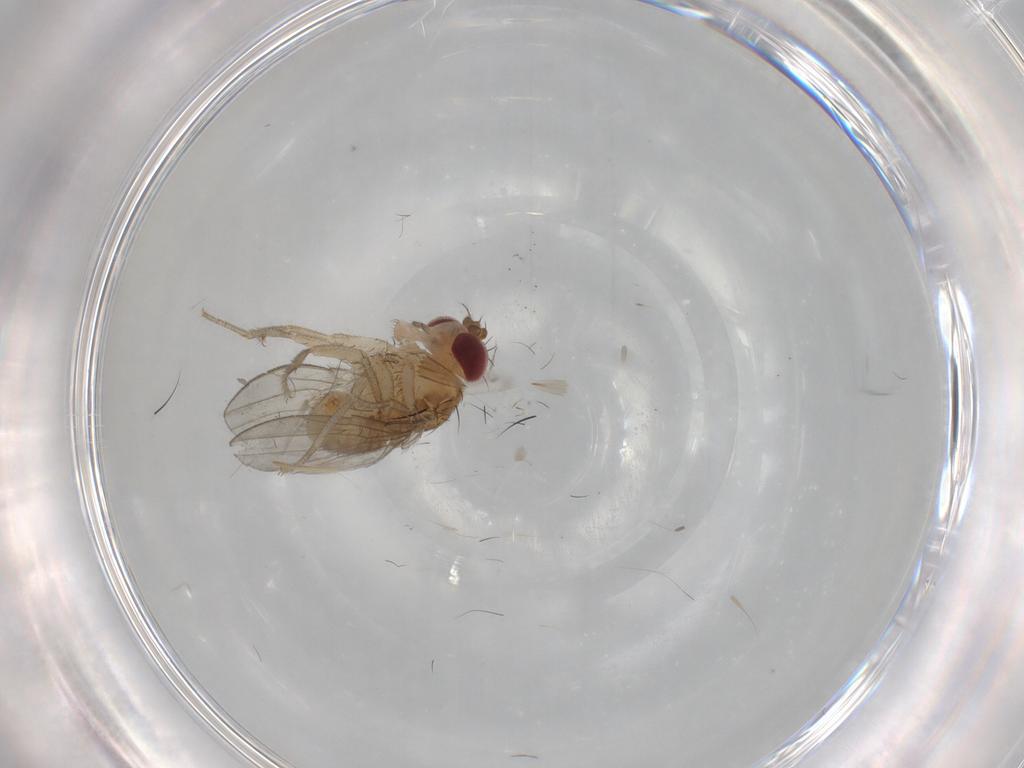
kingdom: Animalia
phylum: Arthropoda
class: Insecta
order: Diptera
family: Drosophilidae
